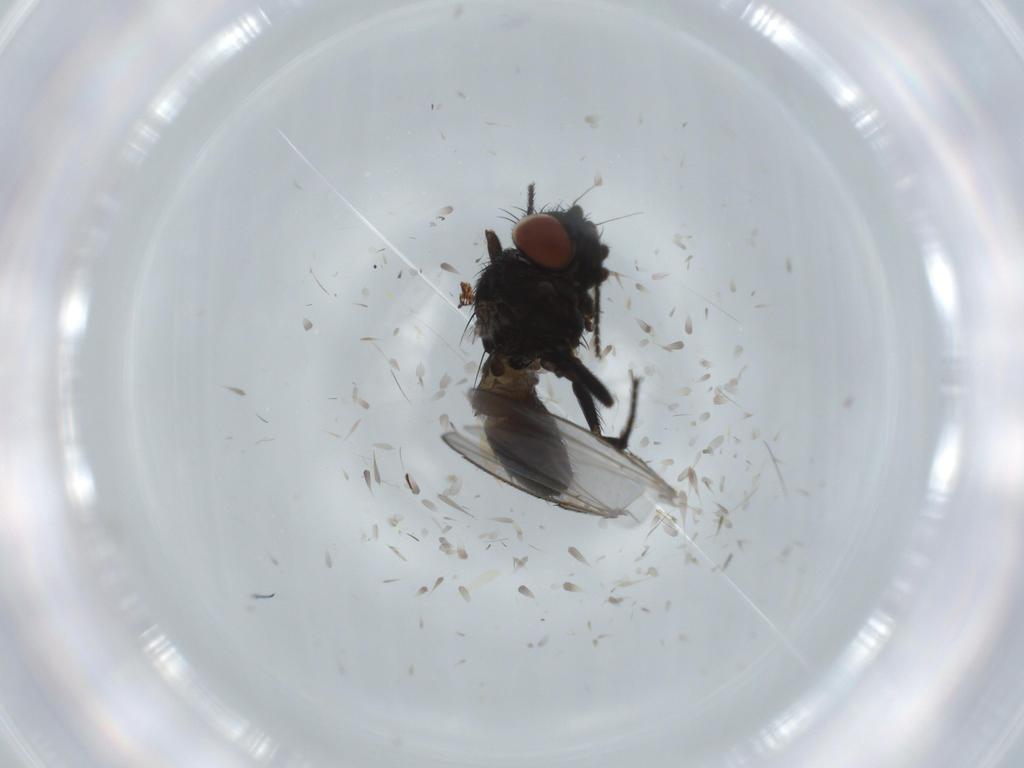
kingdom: Animalia
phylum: Arthropoda
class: Insecta
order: Diptera
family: Milichiidae
